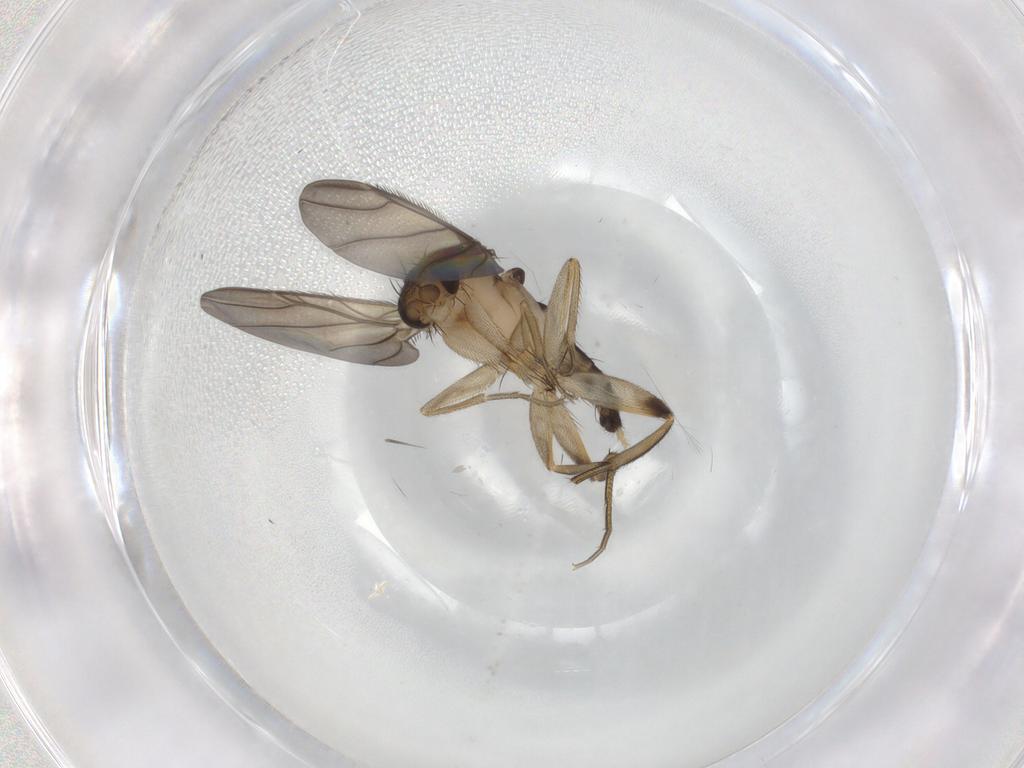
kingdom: Animalia
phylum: Arthropoda
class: Insecta
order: Diptera
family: Phoridae
